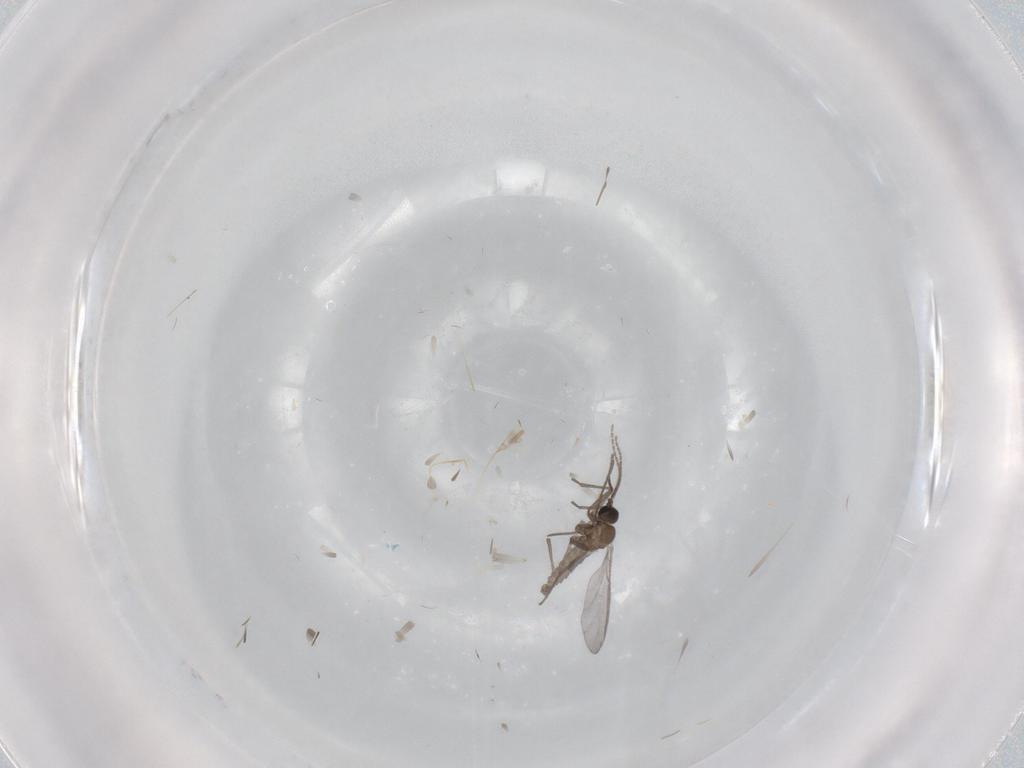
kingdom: Animalia
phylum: Arthropoda
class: Insecta
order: Diptera
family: Sciaridae
